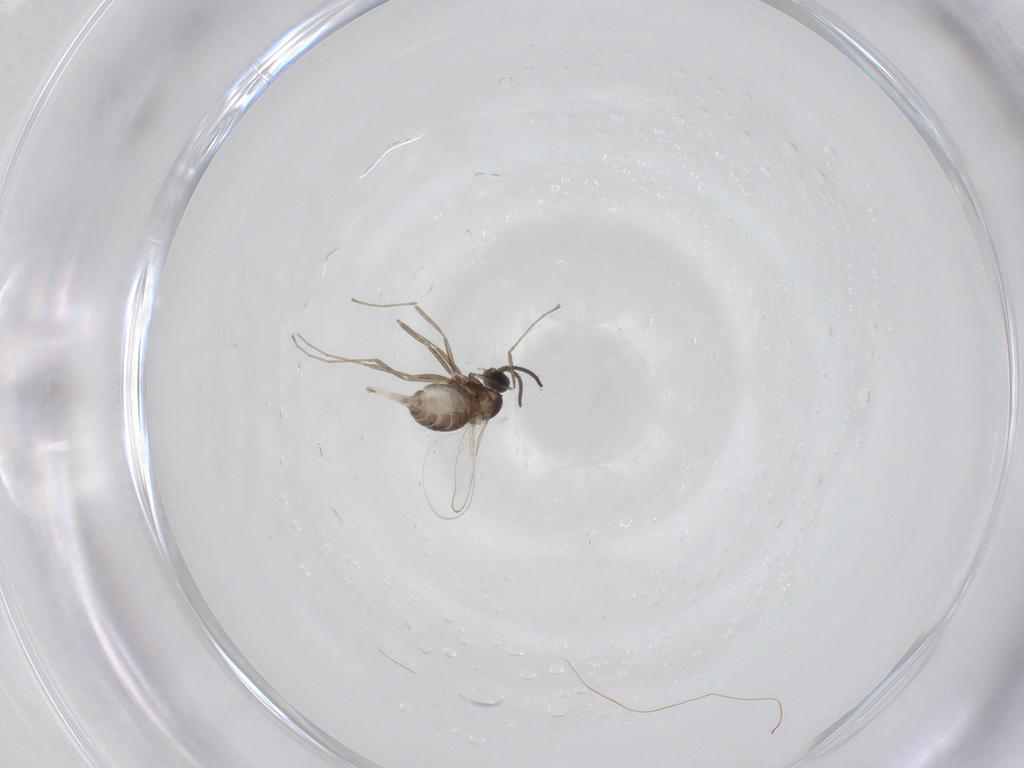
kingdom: Animalia
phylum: Arthropoda
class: Insecta
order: Diptera
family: Cecidomyiidae
